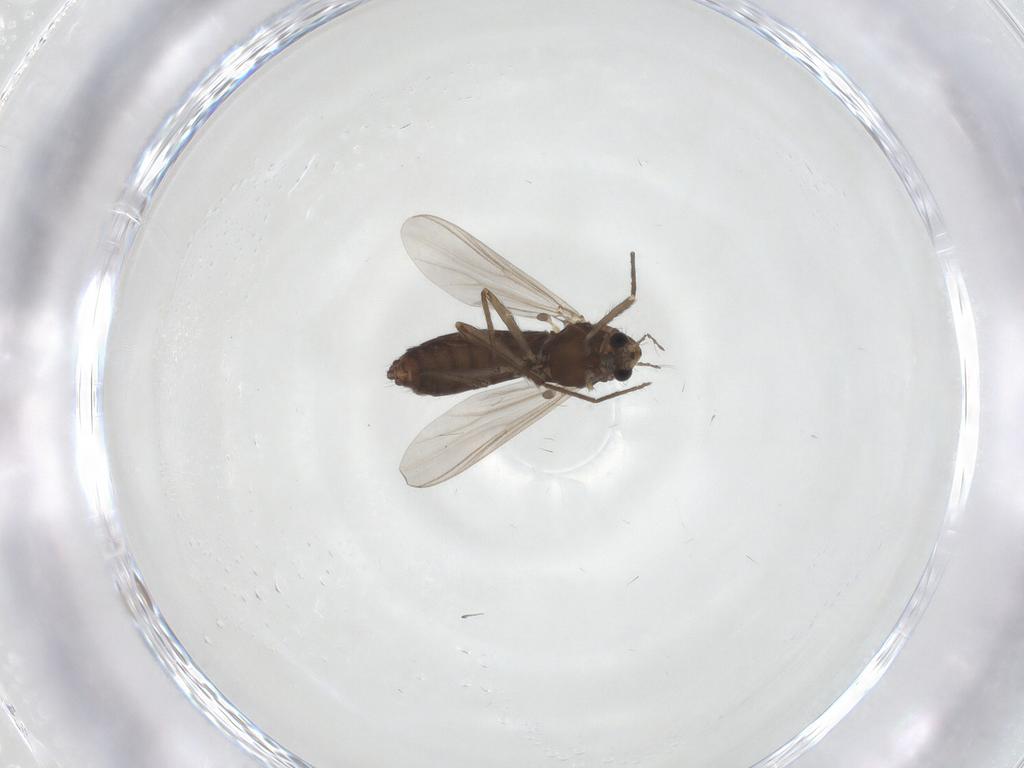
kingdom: Animalia
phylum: Arthropoda
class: Insecta
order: Diptera
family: Chironomidae
